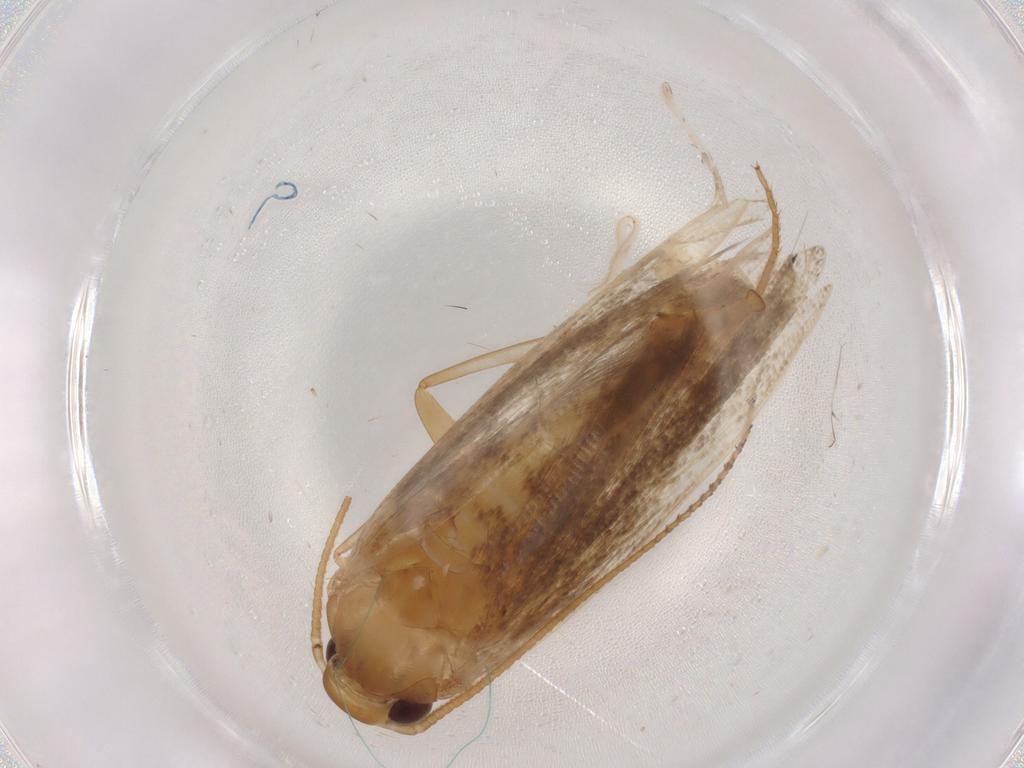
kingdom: Animalia
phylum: Arthropoda
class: Insecta
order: Lepidoptera
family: Gelechiidae
